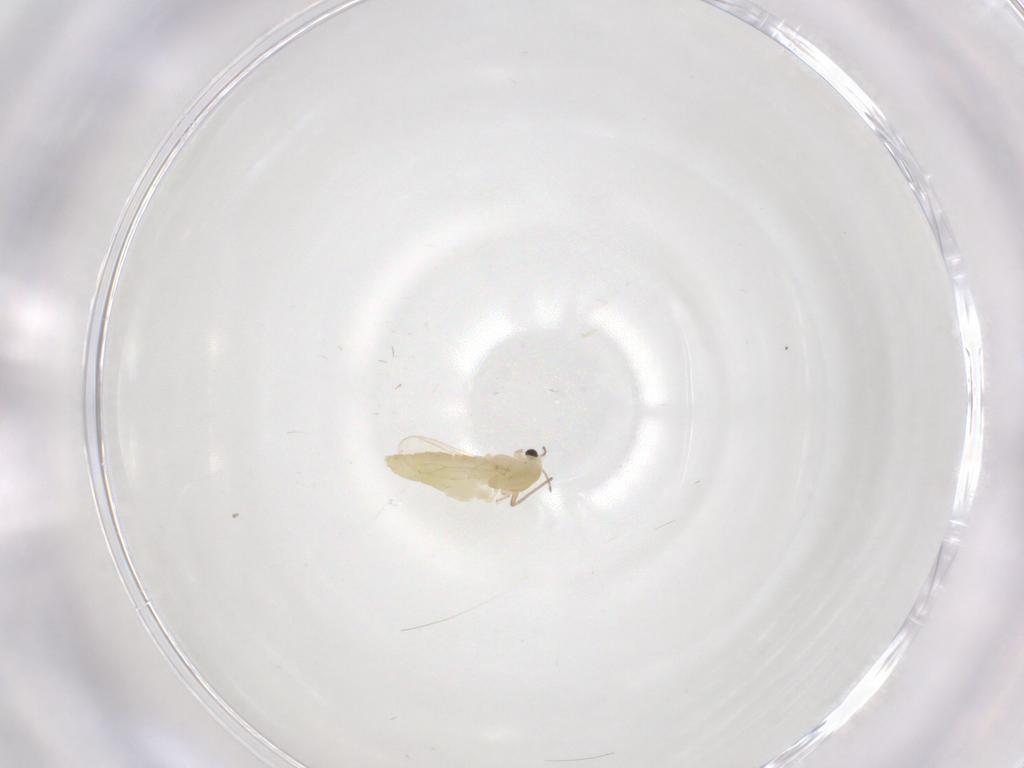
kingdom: Animalia
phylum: Arthropoda
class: Insecta
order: Diptera
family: Chironomidae
